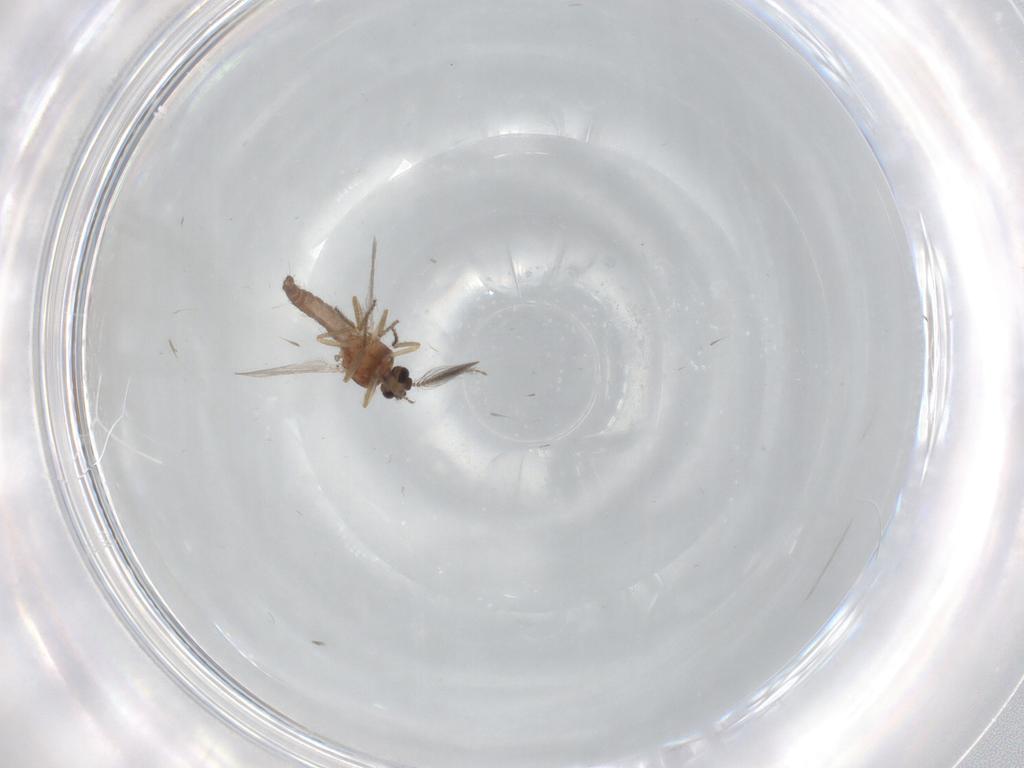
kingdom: Animalia
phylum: Arthropoda
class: Insecta
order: Diptera
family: Ceratopogonidae
